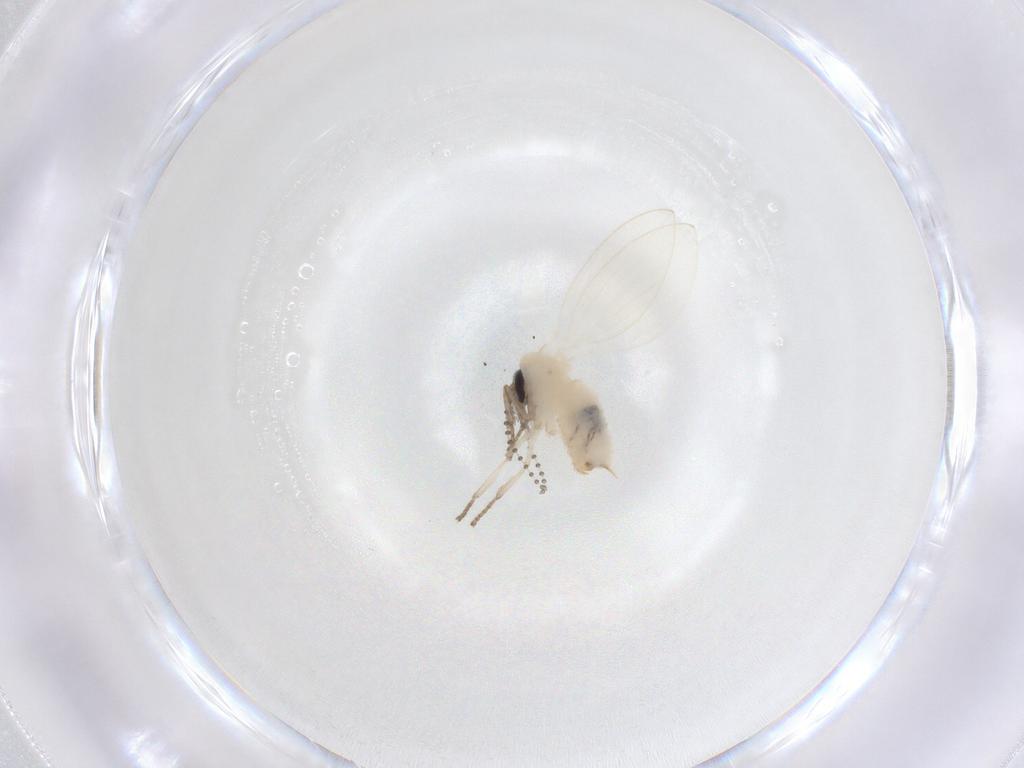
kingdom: Animalia
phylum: Arthropoda
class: Insecta
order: Diptera
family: Psychodidae
